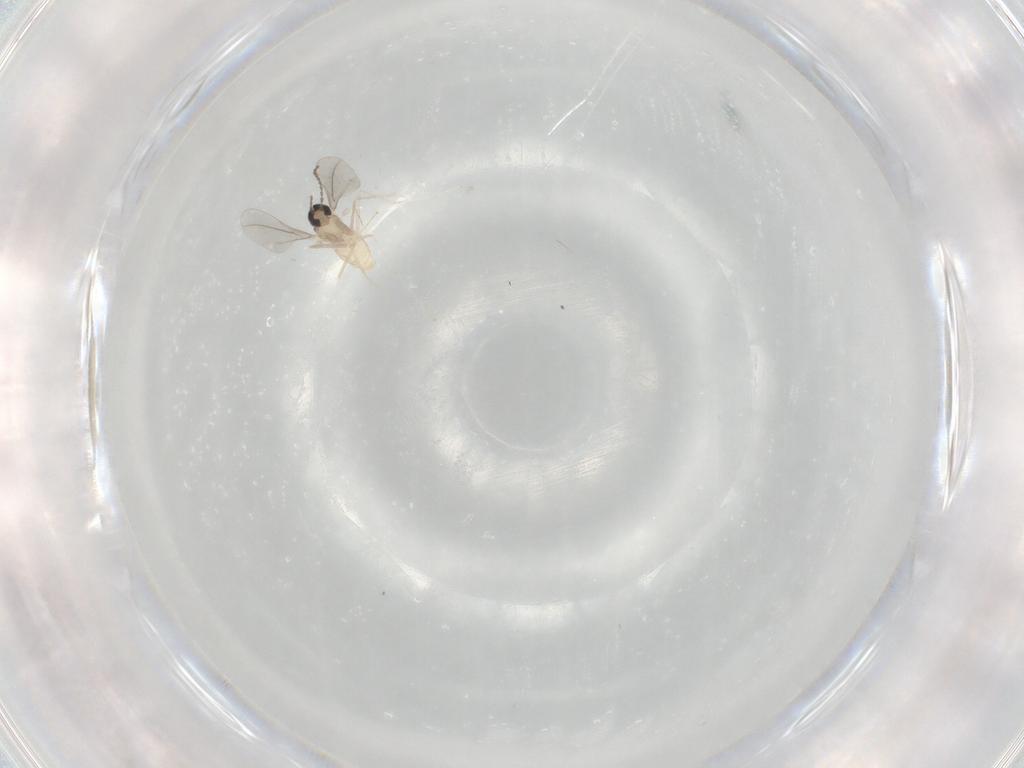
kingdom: Animalia
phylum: Arthropoda
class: Insecta
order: Diptera
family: Cecidomyiidae
